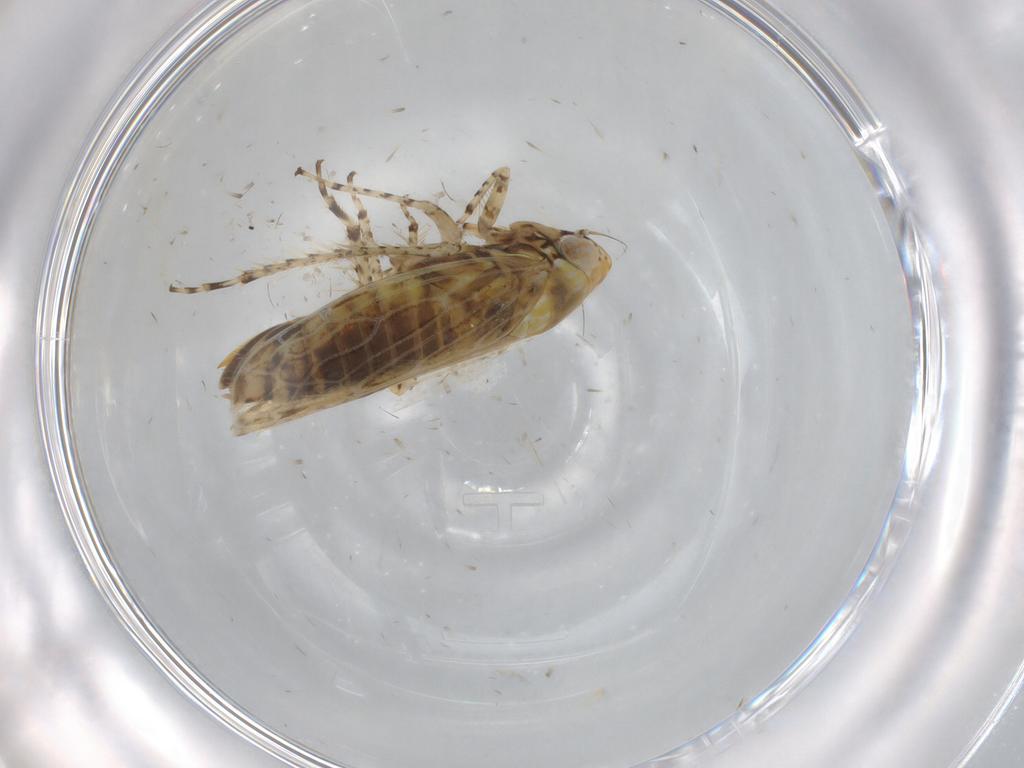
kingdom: Animalia
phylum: Arthropoda
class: Insecta
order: Hemiptera
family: Cicadellidae
